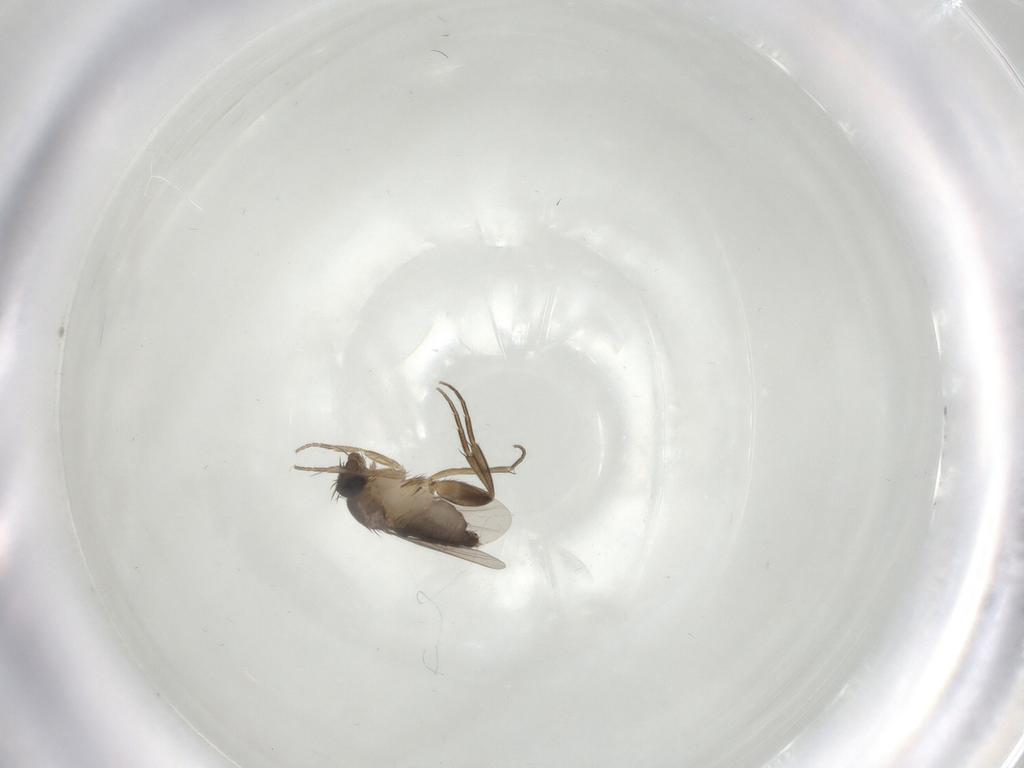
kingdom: Animalia
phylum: Arthropoda
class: Insecta
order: Diptera
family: Phoridae
